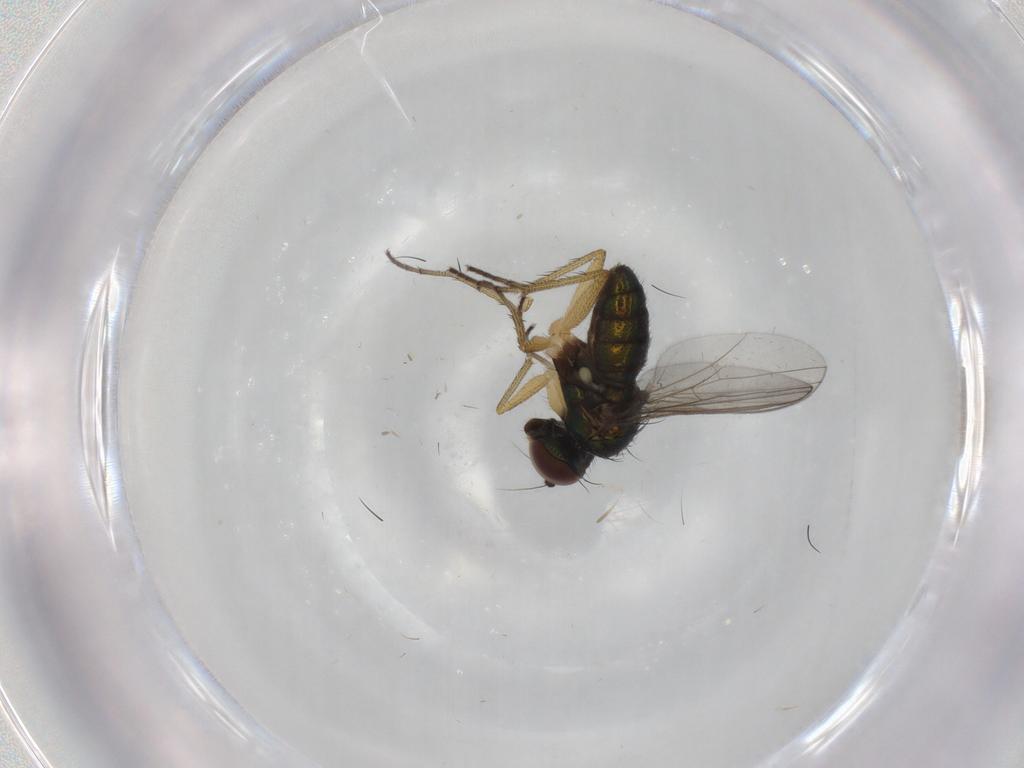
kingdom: Animalia
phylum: Arthropoda
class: Insecta
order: Diptera
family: Dolichopodidae
